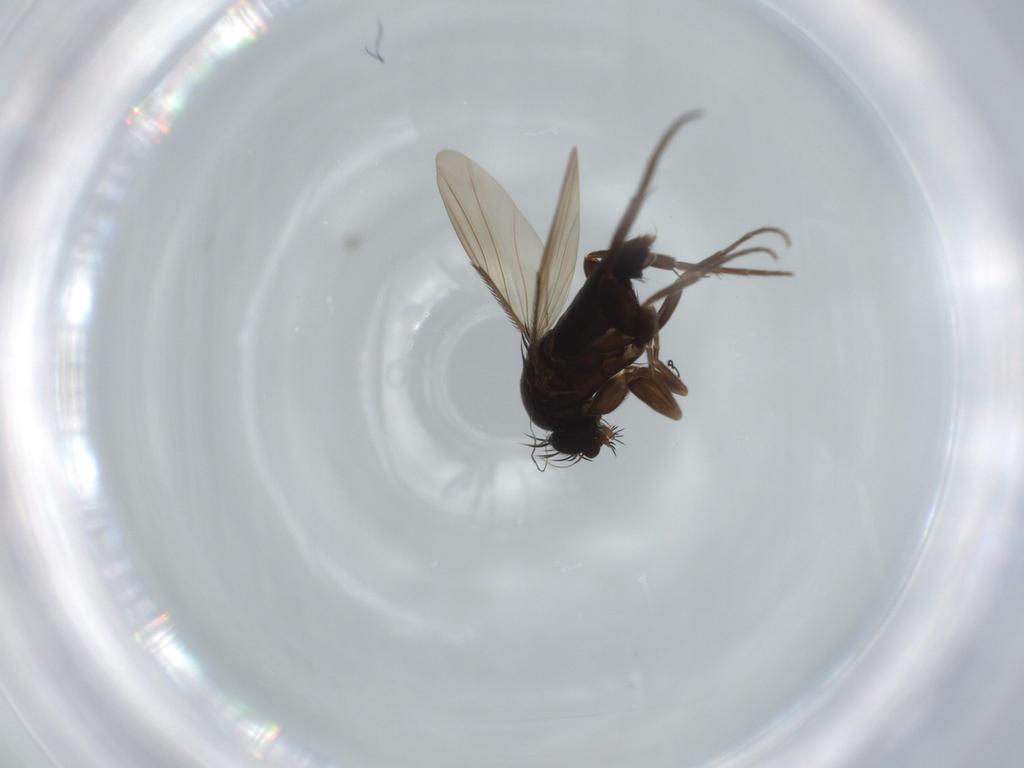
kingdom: Animalia
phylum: Arthropoda
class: Insecta
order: Diptera
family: Phoridae
